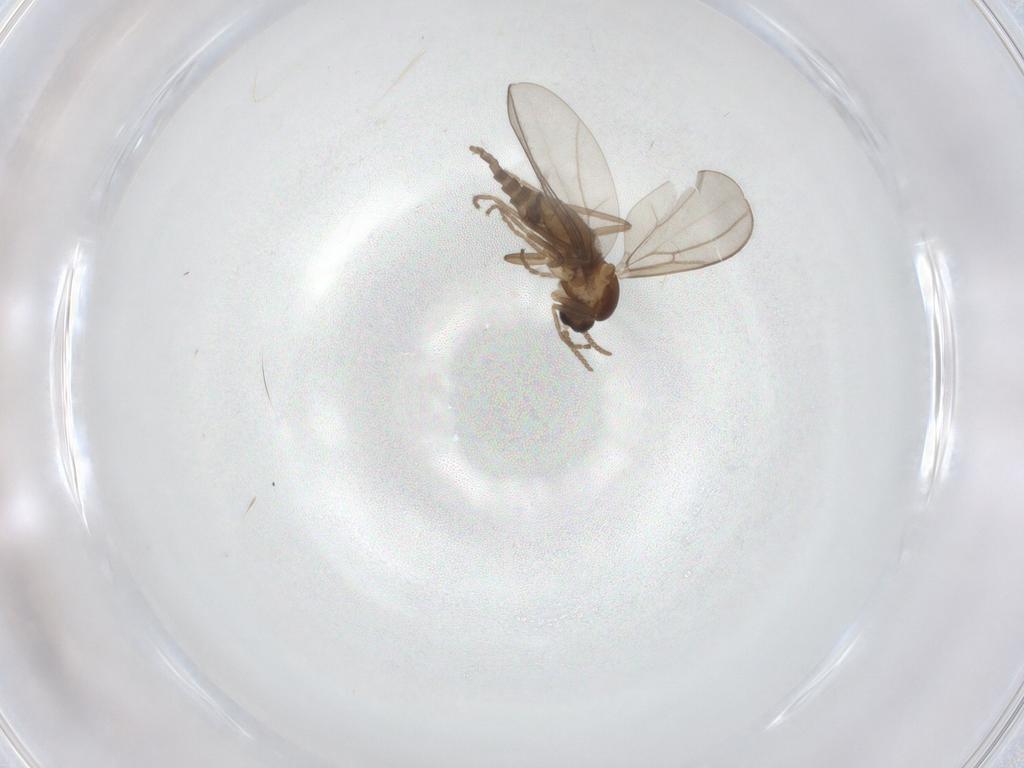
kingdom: Animalia
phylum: Arthropoda
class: Insecta
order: Diptera
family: Cecidomyiidae
